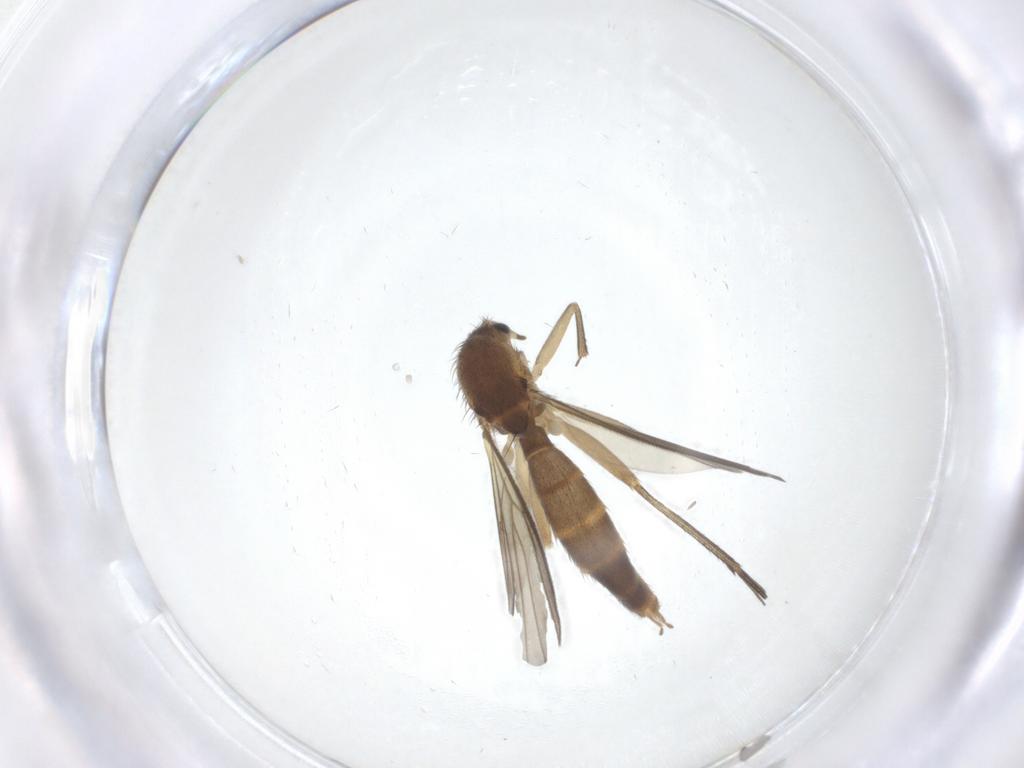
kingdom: Animalia
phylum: Arthropoda
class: Insecta
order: Diptera
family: Mycetophilidae
